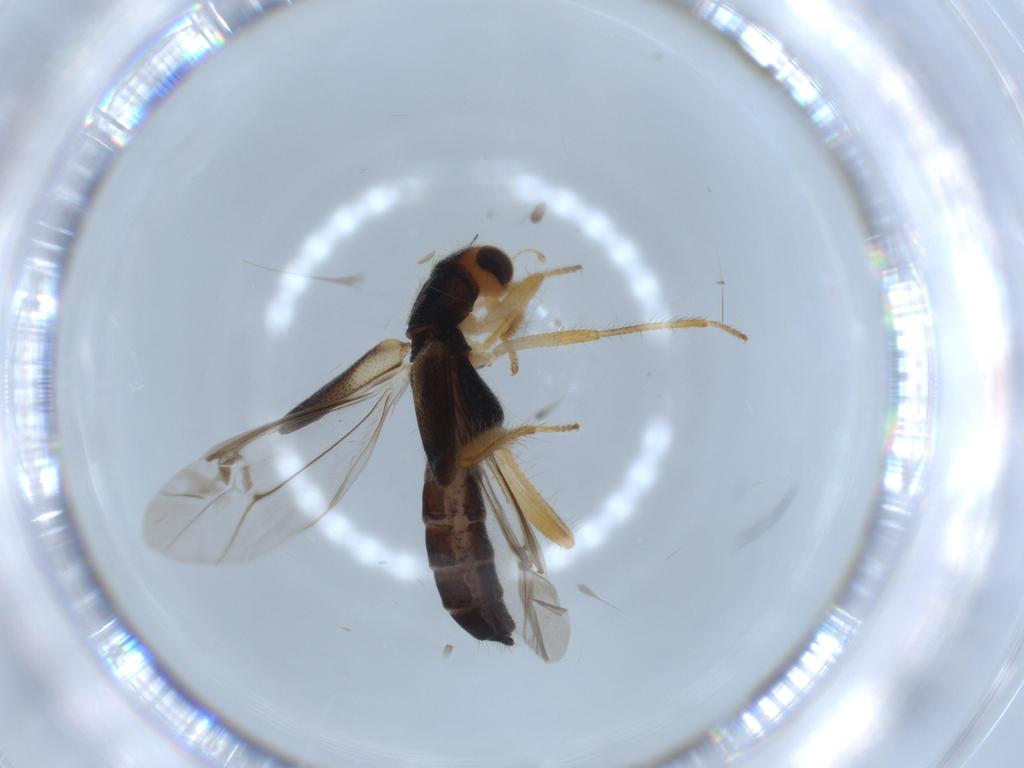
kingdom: Animalia
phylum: Arthropoda
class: Insecta
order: Coleoptera
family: Cleridae
